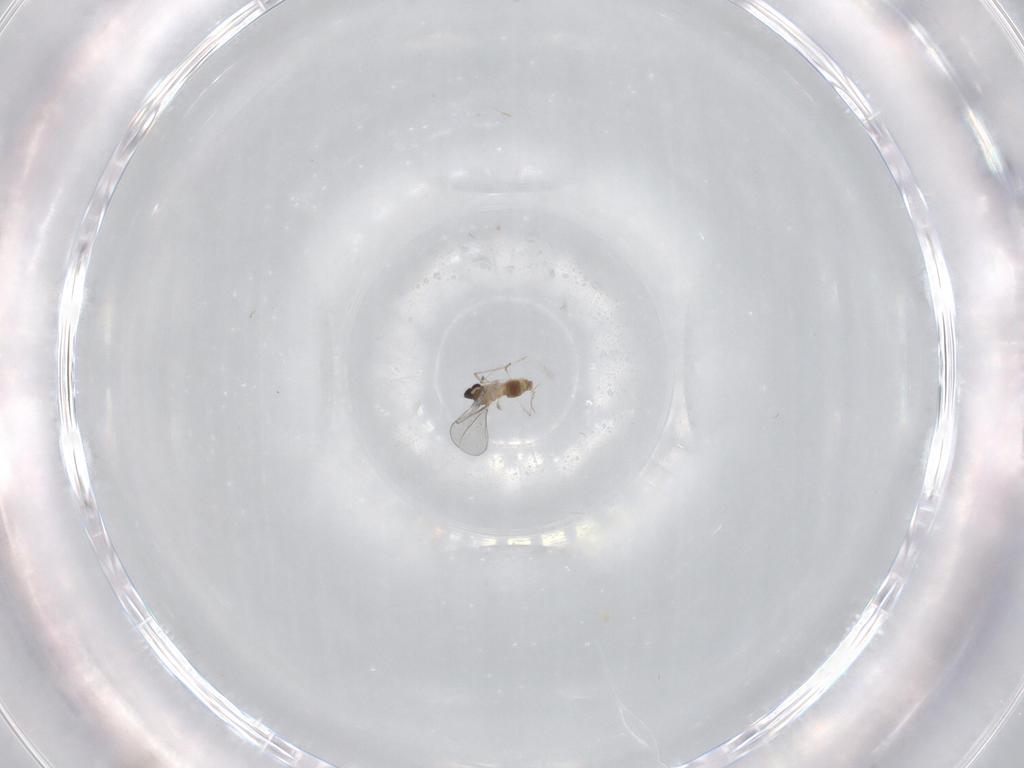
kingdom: Animalia
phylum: Arthropoda
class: Insecta
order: Diptera
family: Cecidomyiidae
